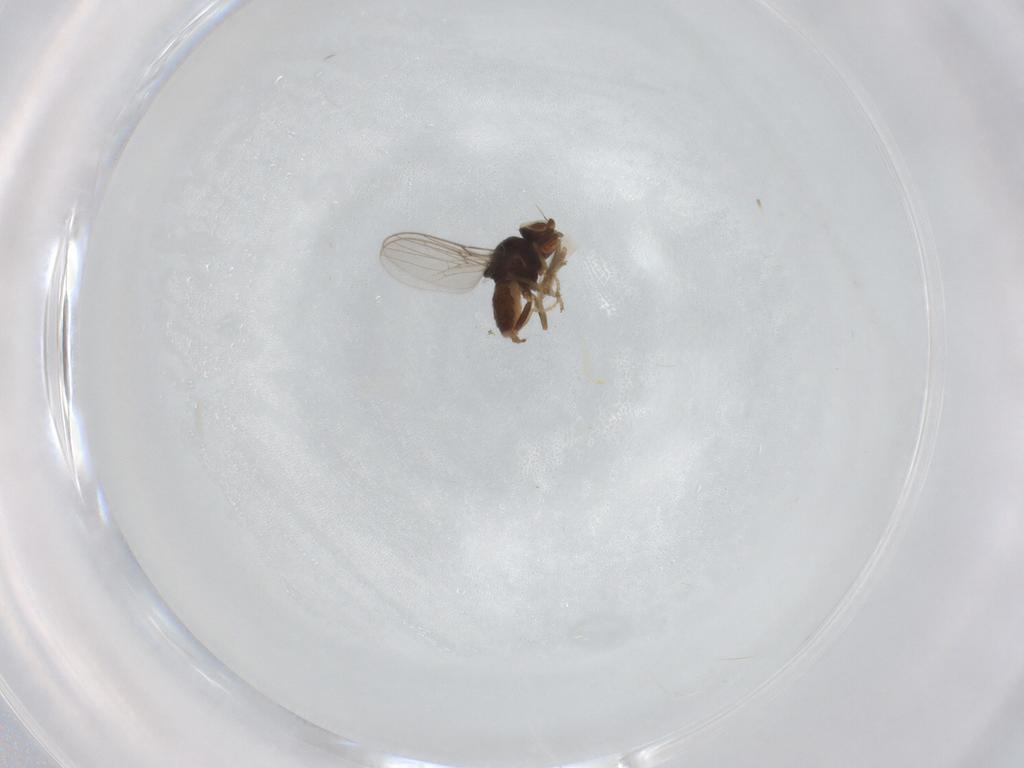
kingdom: Animalia
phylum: Arthropoda
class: Insecta
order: Diptera
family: Chloropidae
